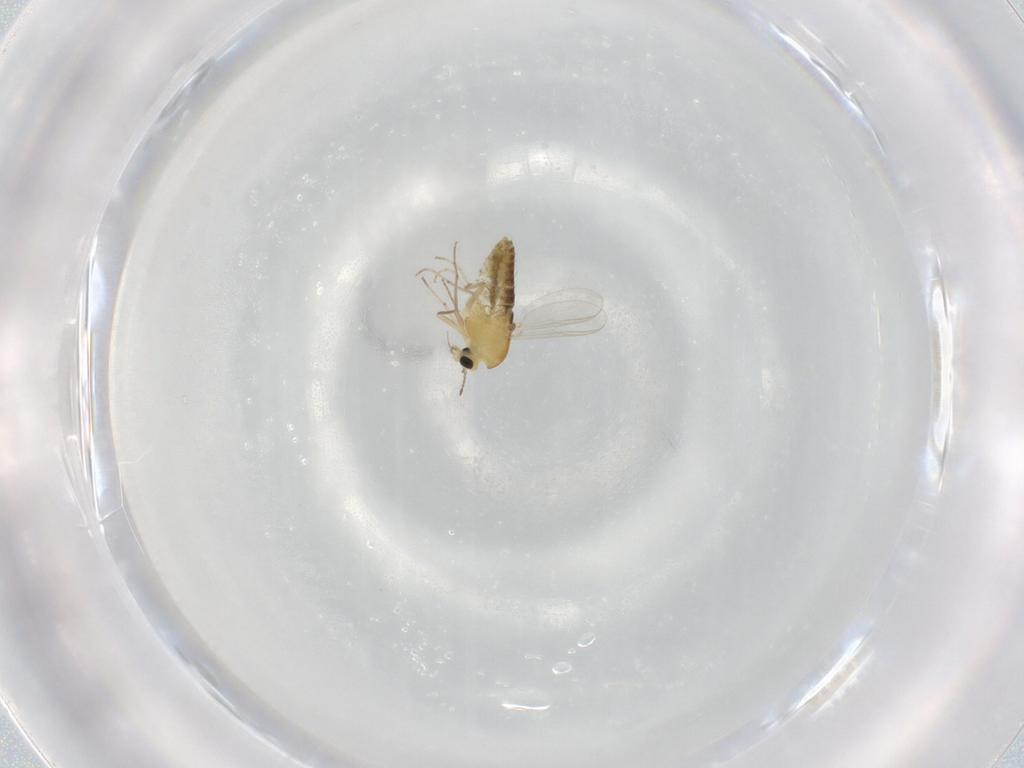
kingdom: Animalia
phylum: Arthropoda
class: Insecta
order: Diptera
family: Chironomidae
